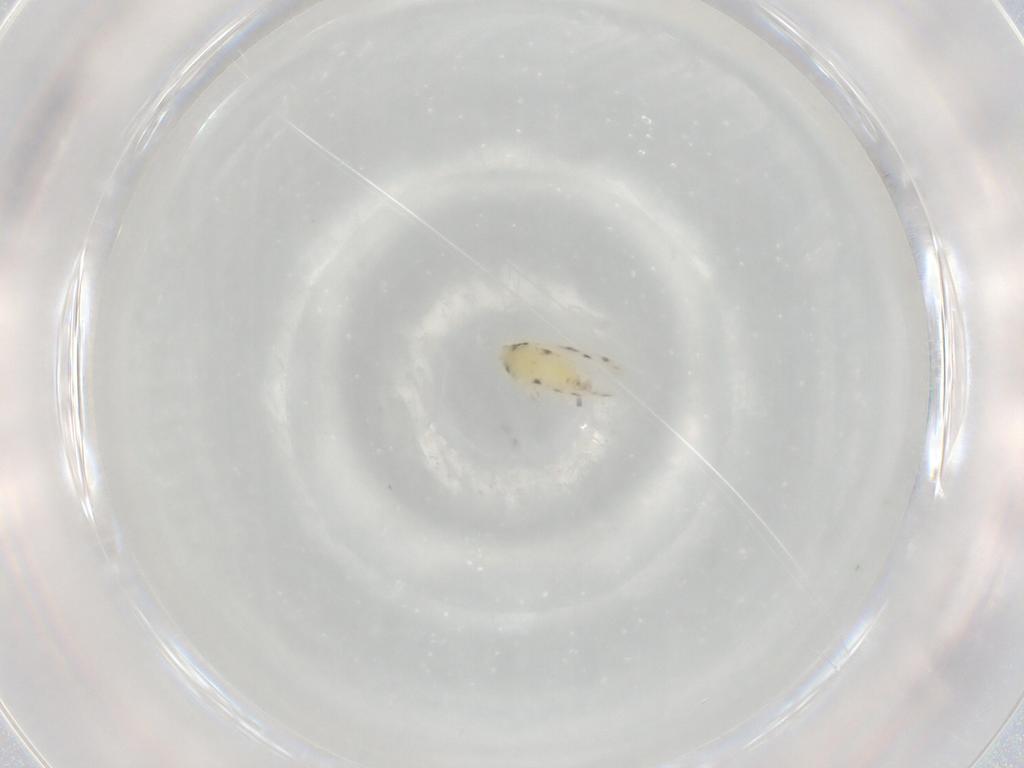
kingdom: Animalia
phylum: Arthropoda
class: Insecta
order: Hemiptera
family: Aleyrodidae
